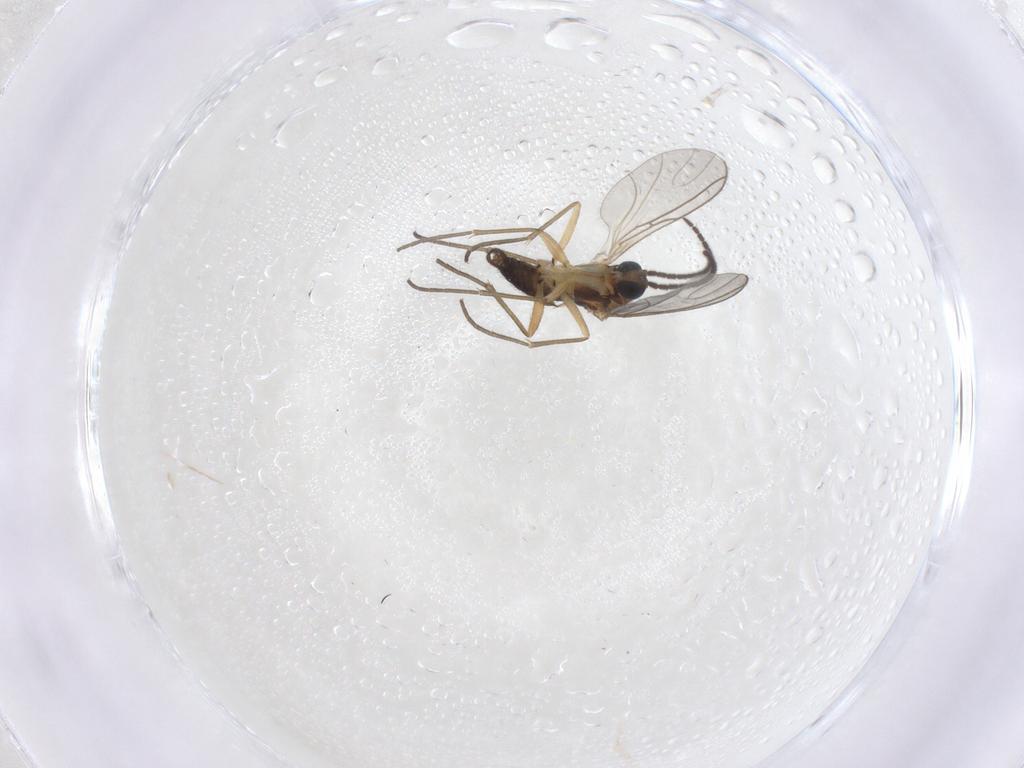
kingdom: Animalia
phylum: Arthropoda
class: Insecta
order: Diptera
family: Sciaridae
